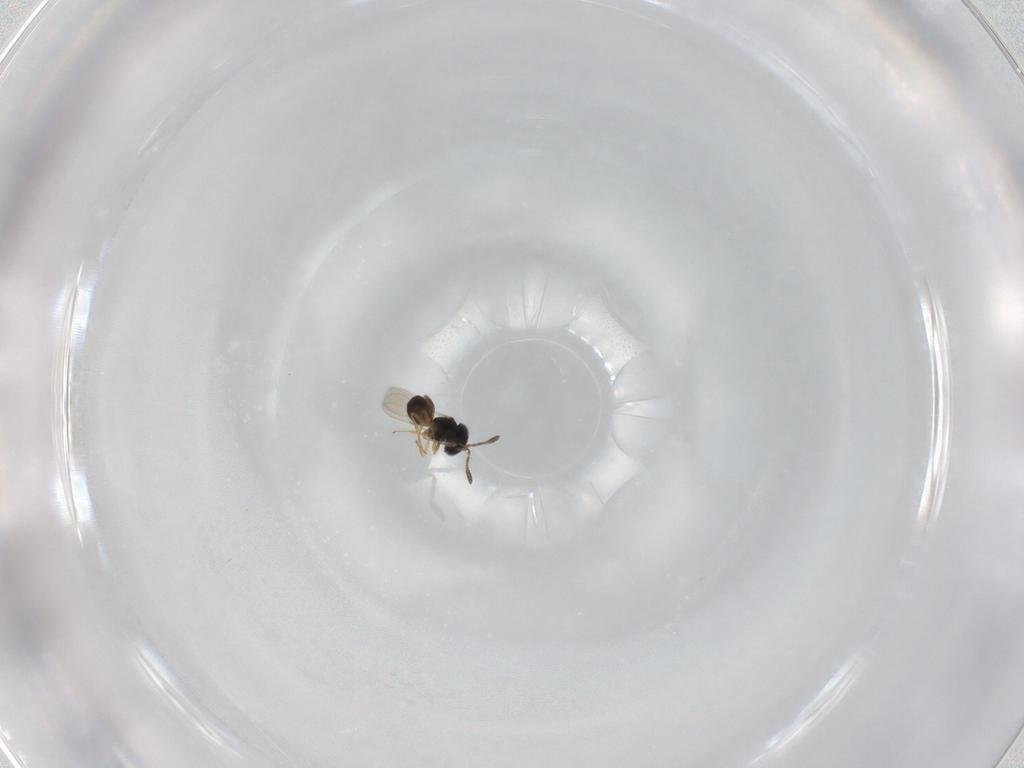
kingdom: Animalia
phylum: Arthropoda
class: Insecta
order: Hymenoptera
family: Scelionidae
